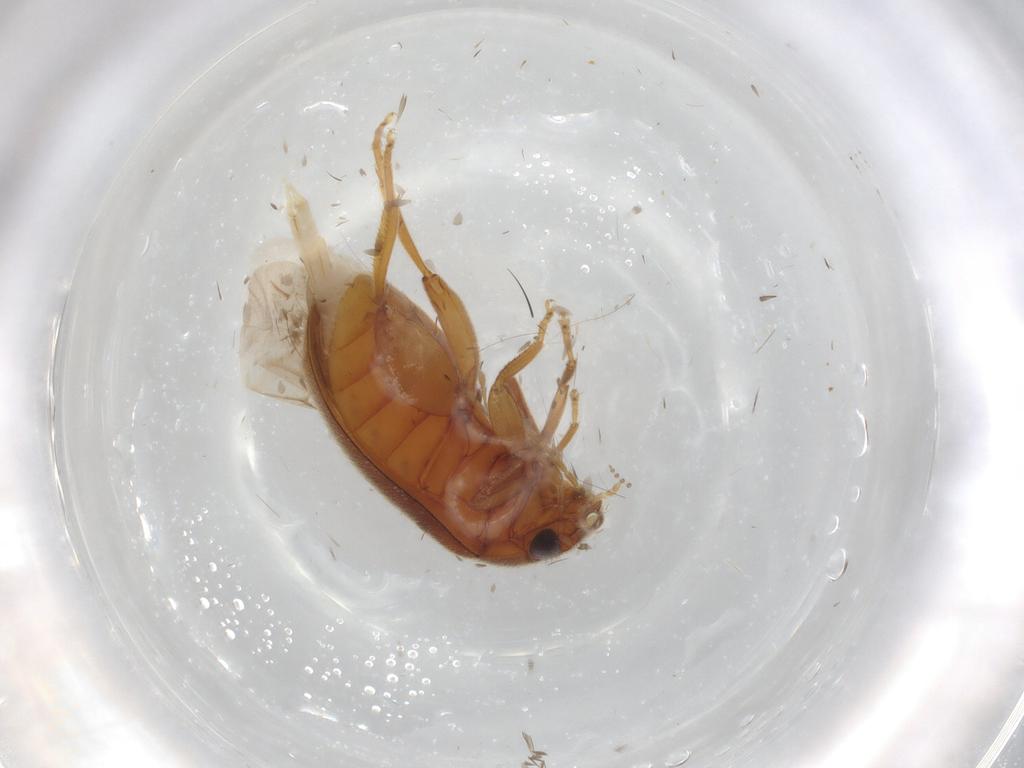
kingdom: Animalia
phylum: Arthropoda
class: Insecta
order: Coleoptera
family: Scirtidae
